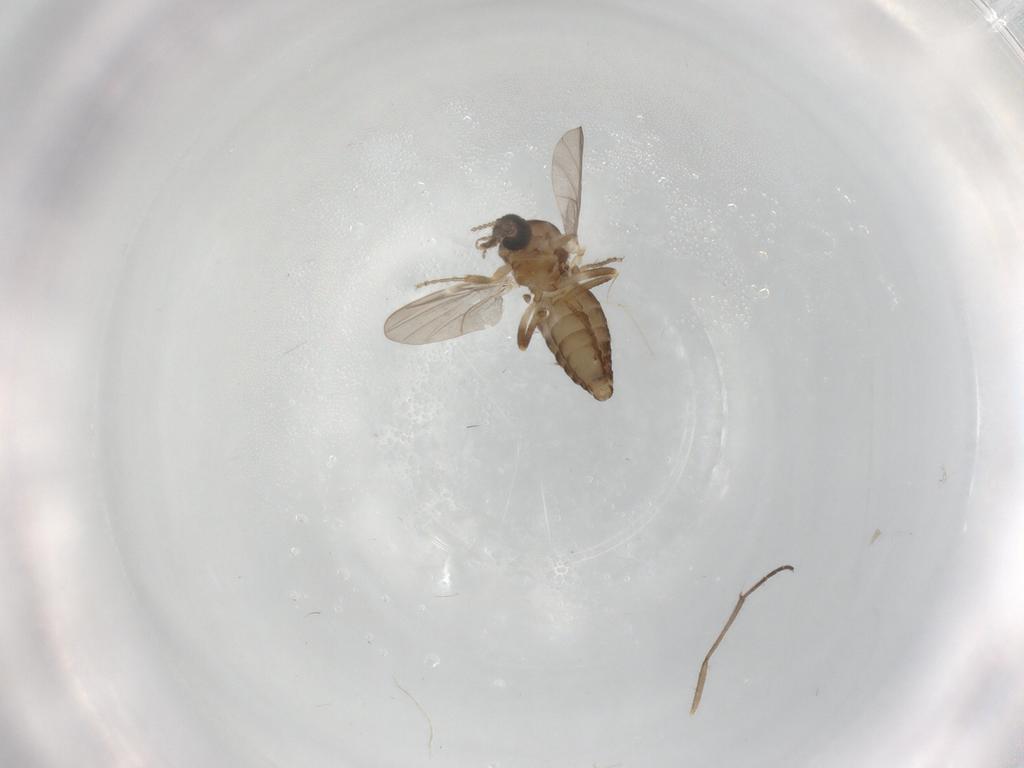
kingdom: Animalia
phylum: Arthropoda
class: Insecta
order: Diptera
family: Ceratopogonidae
